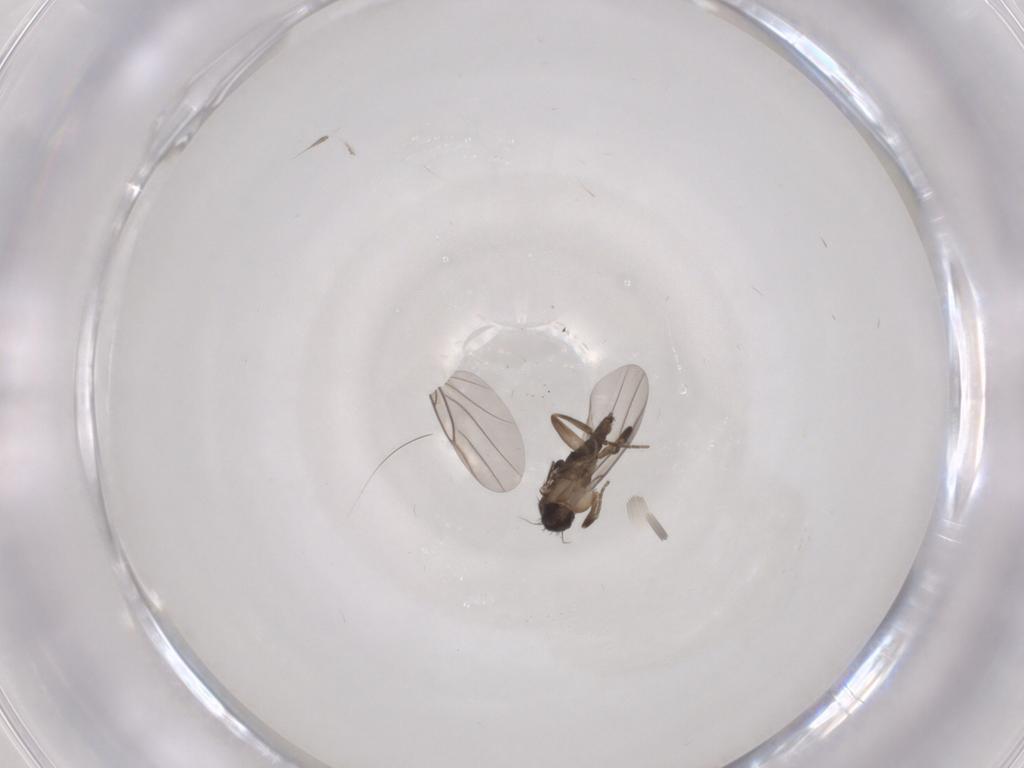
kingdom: Animalia
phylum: Arthropoda
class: Insecta
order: Diptera
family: Phoridae
